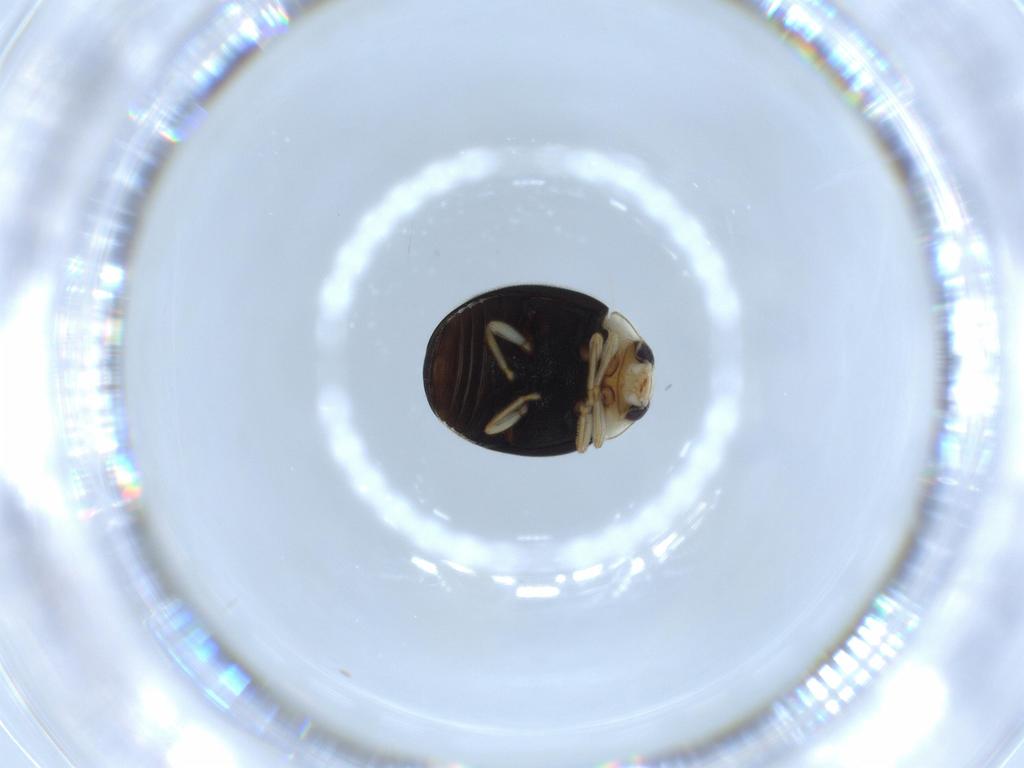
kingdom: Animalia
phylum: Arthropoda
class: Insecta
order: Coleoptera
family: Coccinellidae
